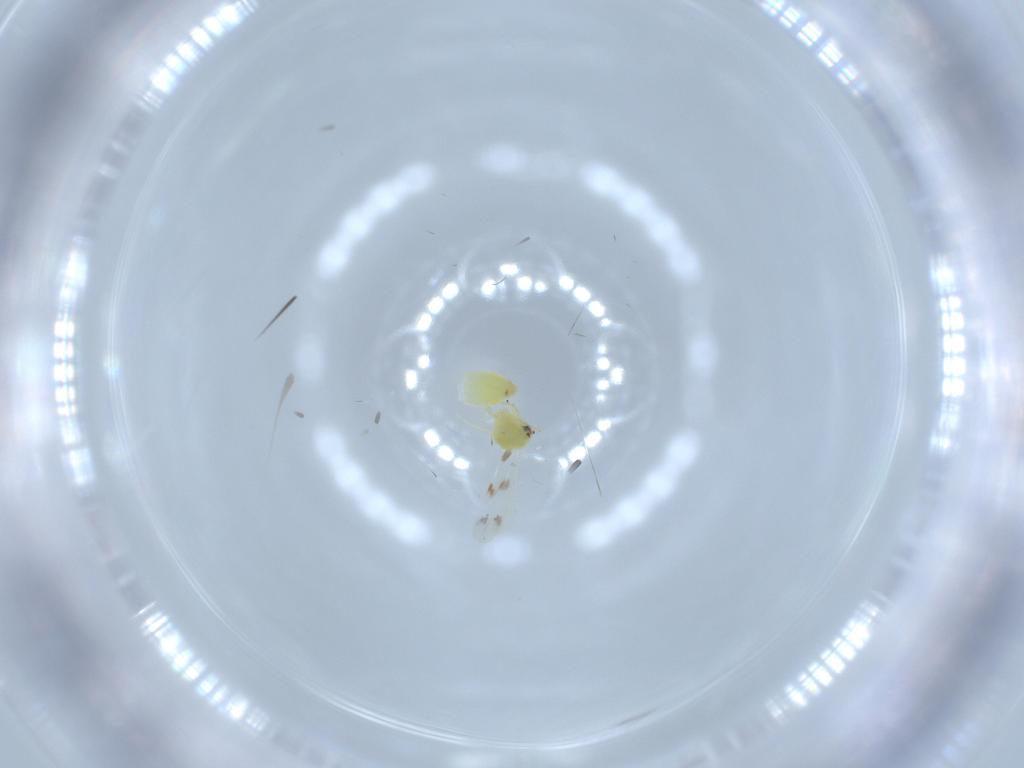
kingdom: Animalia
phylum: Arthropoda
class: Insecta
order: Hemiptera
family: Aleyrodidae
